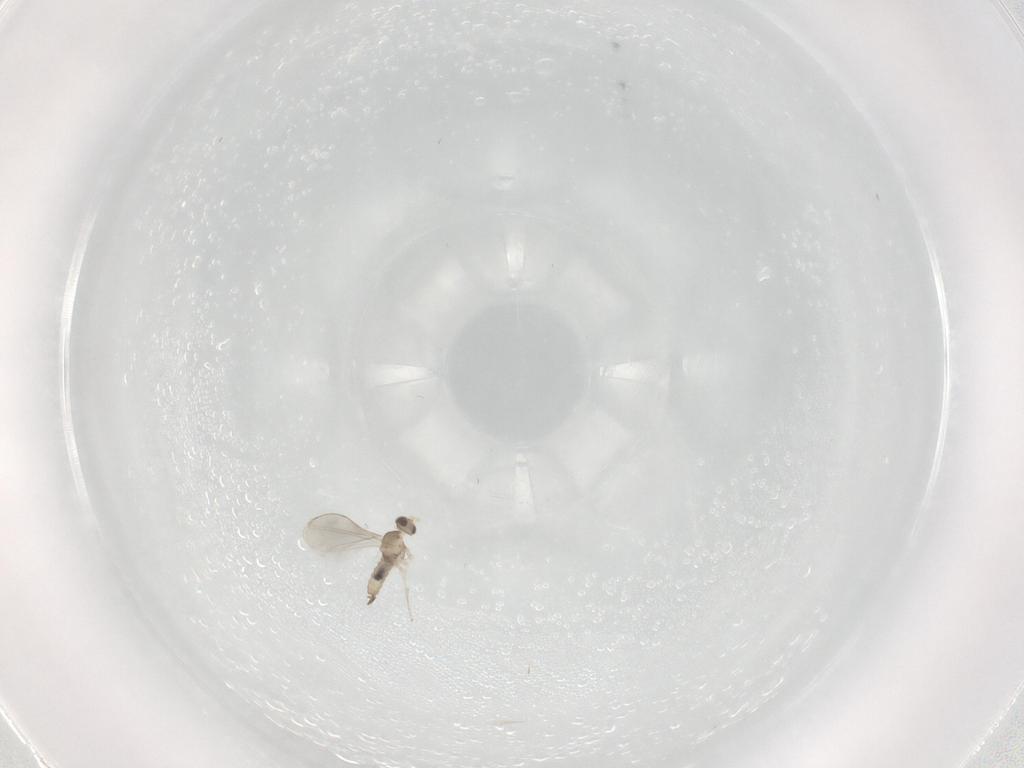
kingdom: Animalia
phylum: Arthropoda
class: Insecta
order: Diptera
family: Cecidomyiidae
